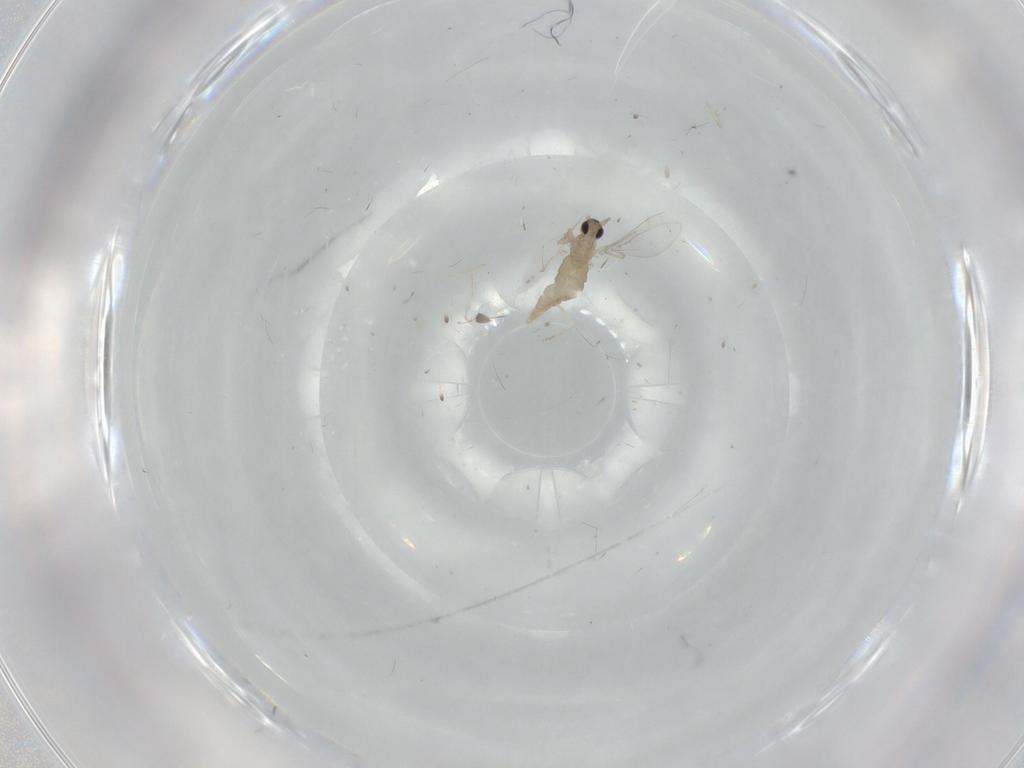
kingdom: Animalia
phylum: Arthropoda
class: Insecta
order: Diptera
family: Cecidomyiidae
